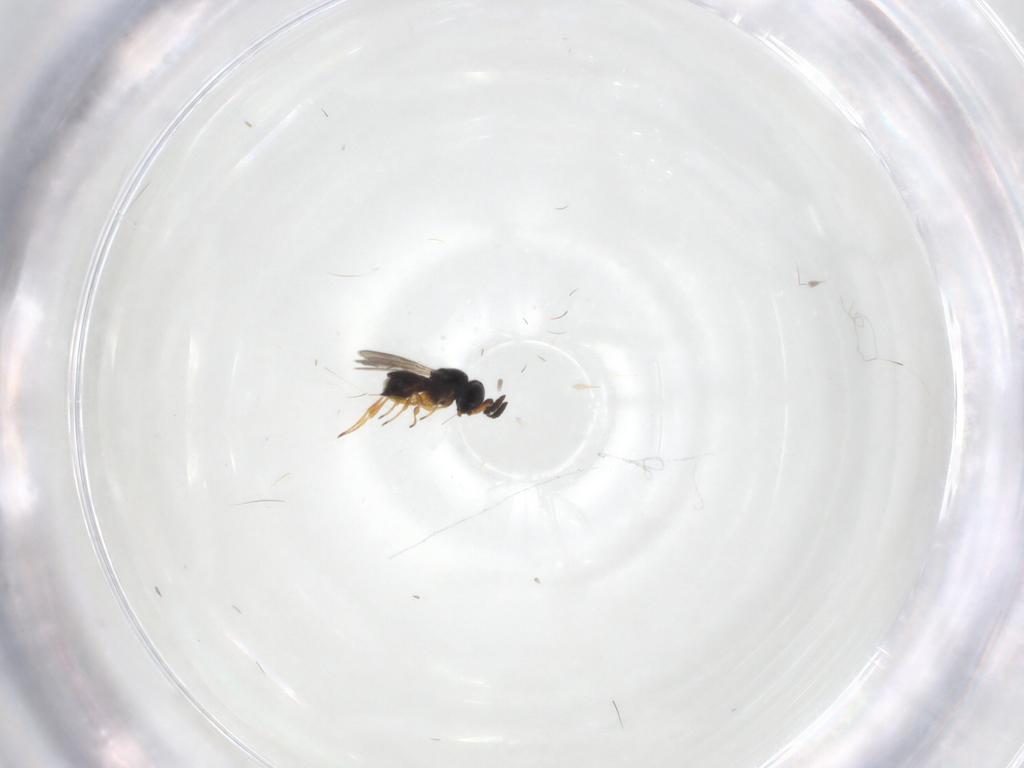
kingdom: Animalia
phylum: Arthropoda
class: Insecta
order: Hymenoptera
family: Scelionidae
